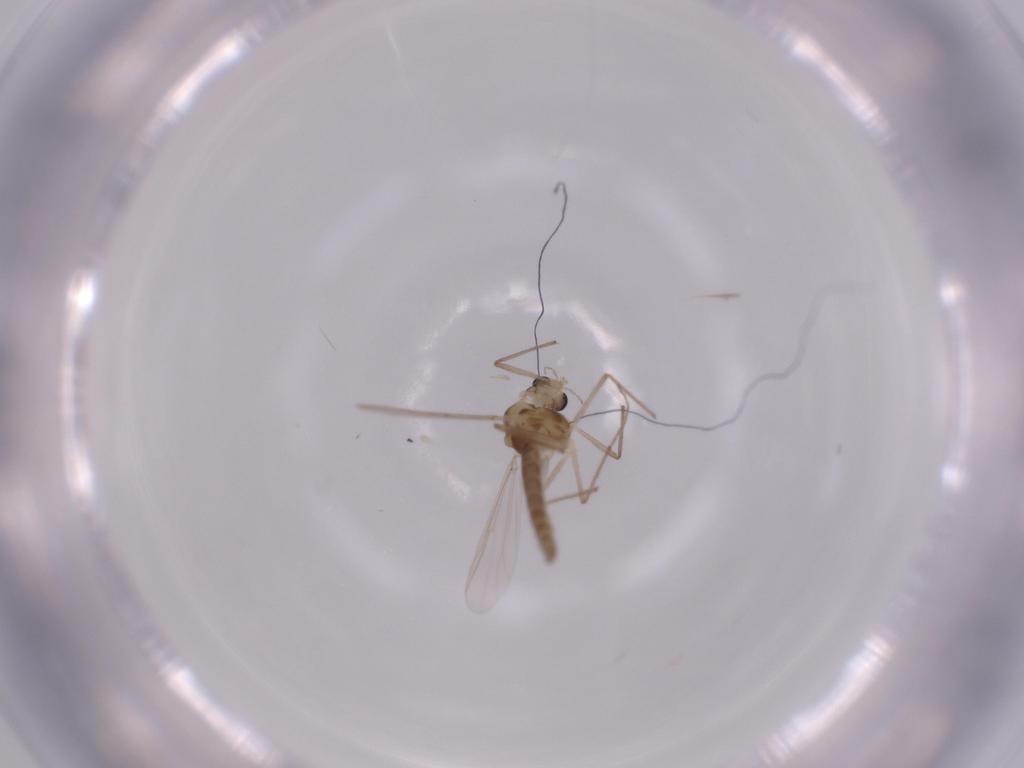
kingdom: Animalia
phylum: Arthropoda
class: Insecta
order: Diptera
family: Chironomidae
